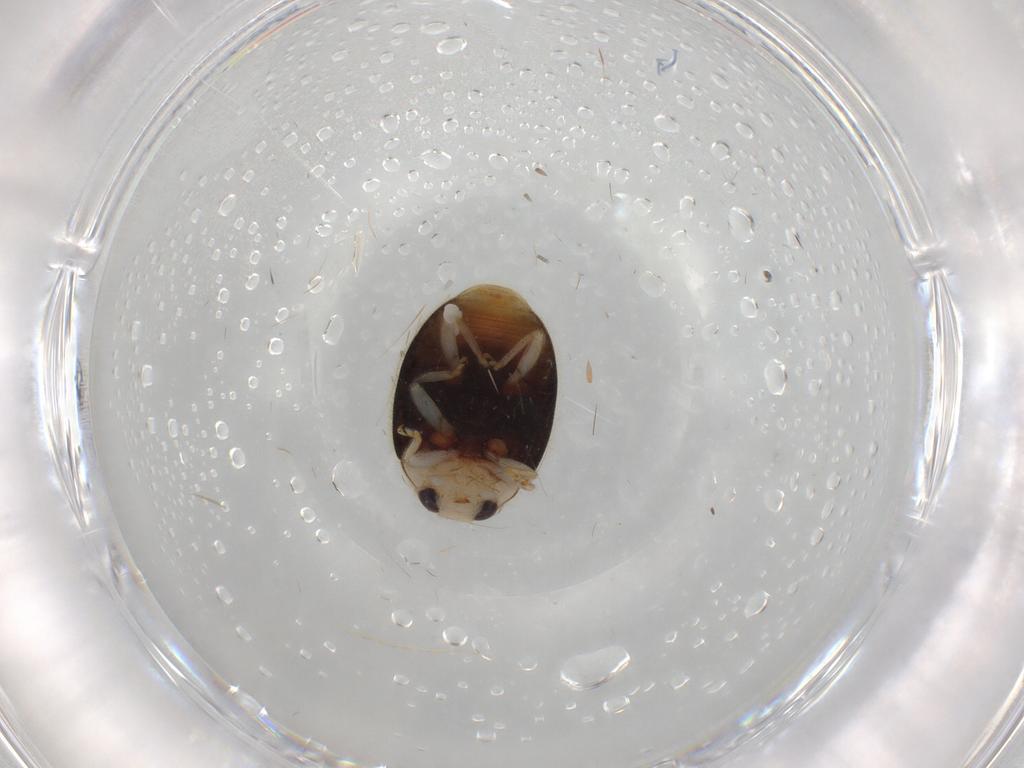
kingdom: Animalia
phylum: Arthropoda
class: Insecta
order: Coleoptera
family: Coccinellidae
